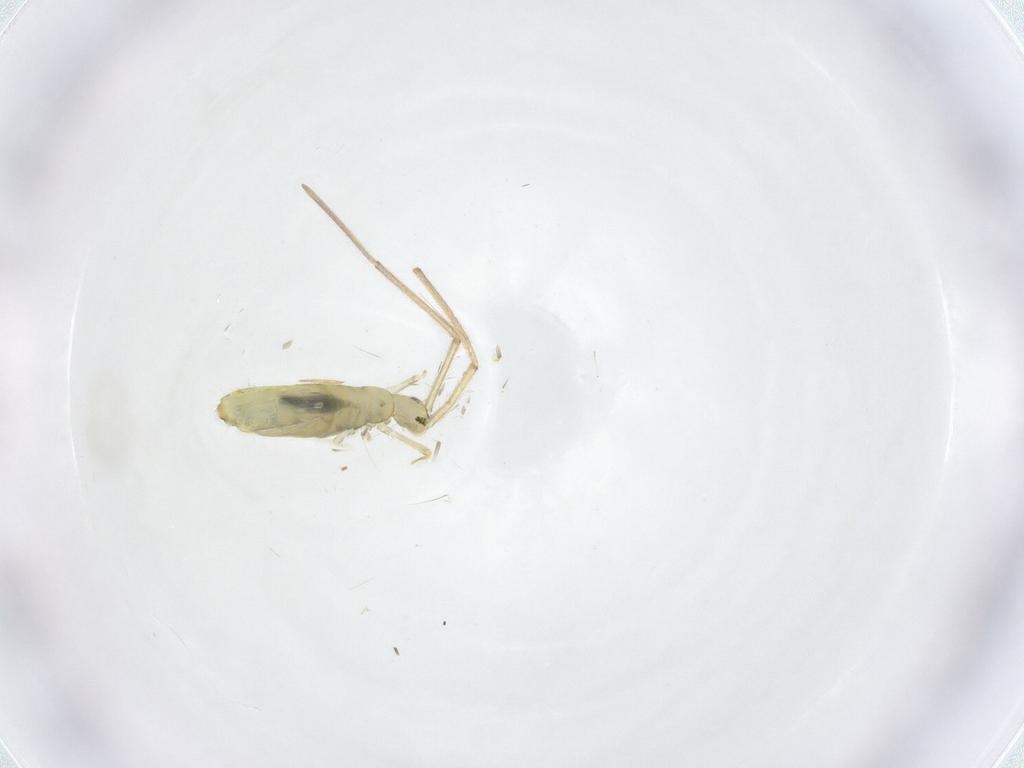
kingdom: Animalia
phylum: Arthropoda
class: Collembola
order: Entomobryomorpha
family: Paronellidae
